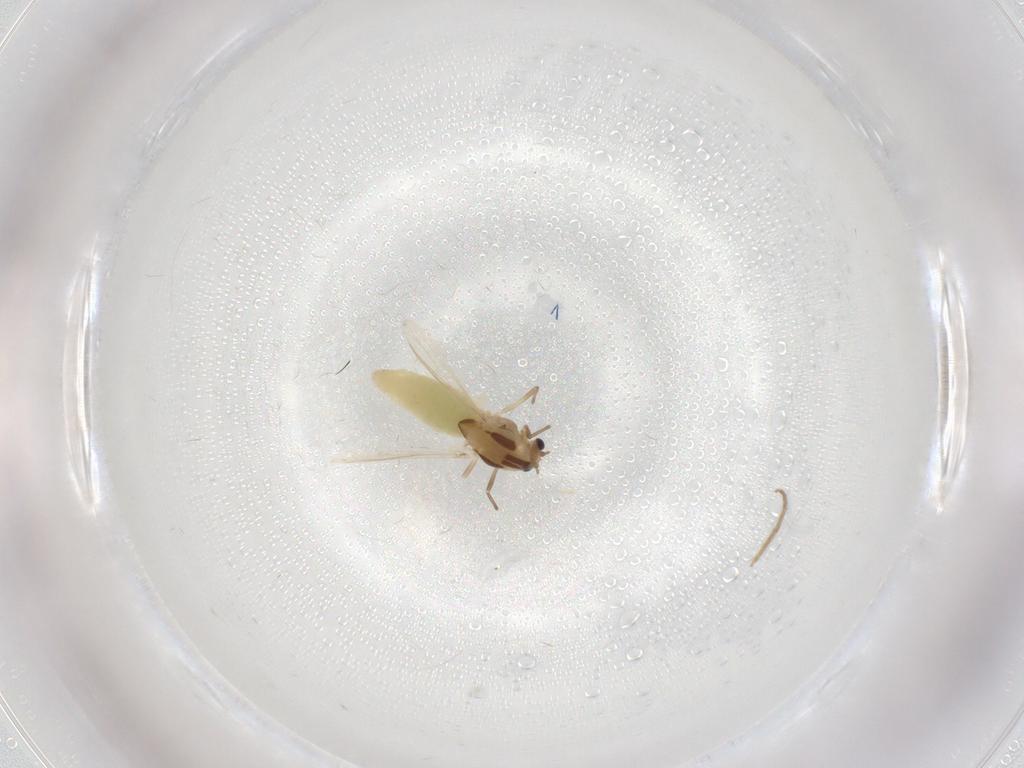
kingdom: Animalia
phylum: Arthropoda
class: Insecta
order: Diptera
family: Chironomidae
